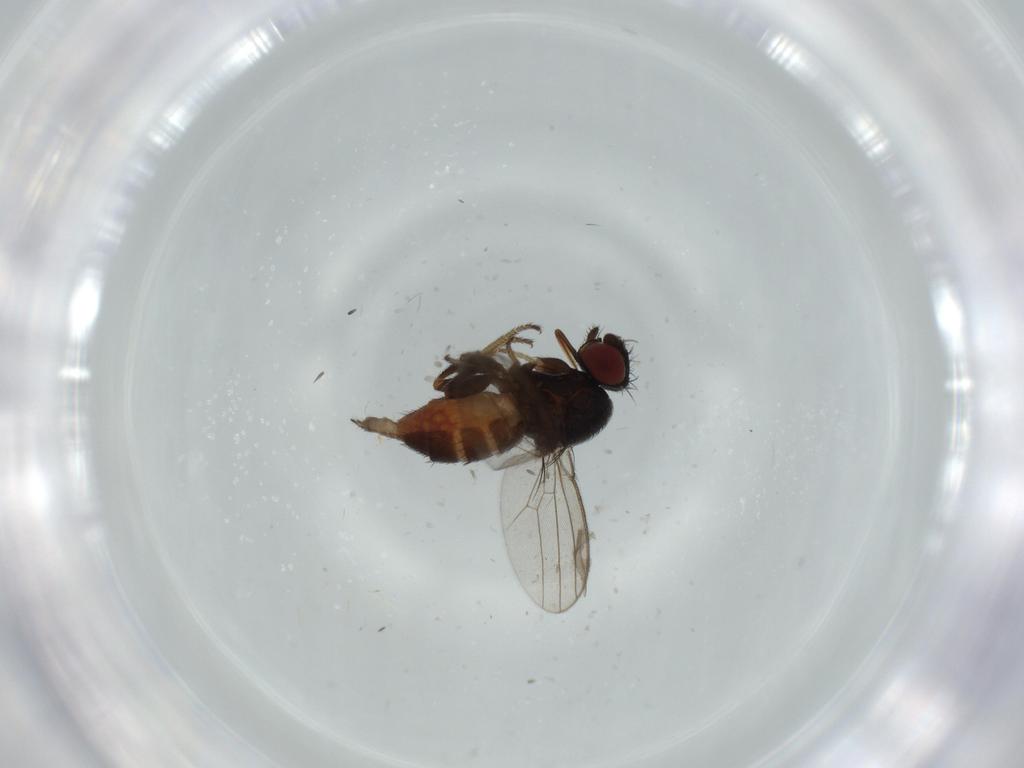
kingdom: Animalia
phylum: Arthropoda
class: Insecta
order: Diptera
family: Milichiidae
